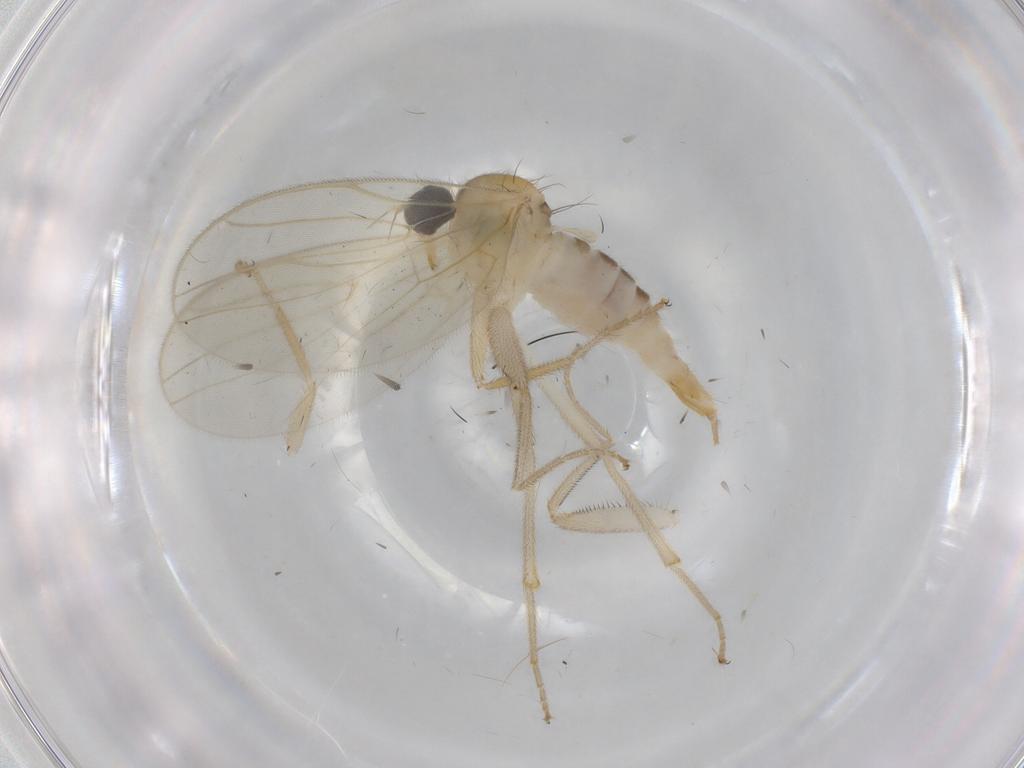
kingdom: Animalia
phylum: Arthropoda
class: Insecta
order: Diptera
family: Hybotidae
